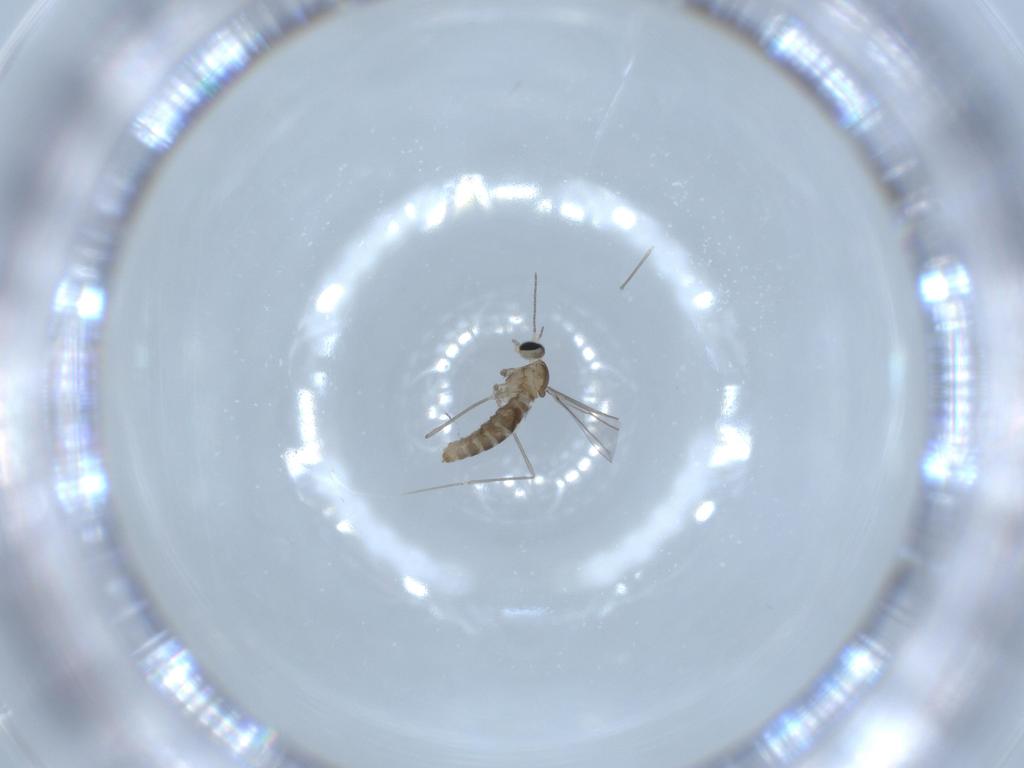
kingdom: Animalia
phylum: Arthropoda
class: Insecta
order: Diptera
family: Cecidomyiidae
